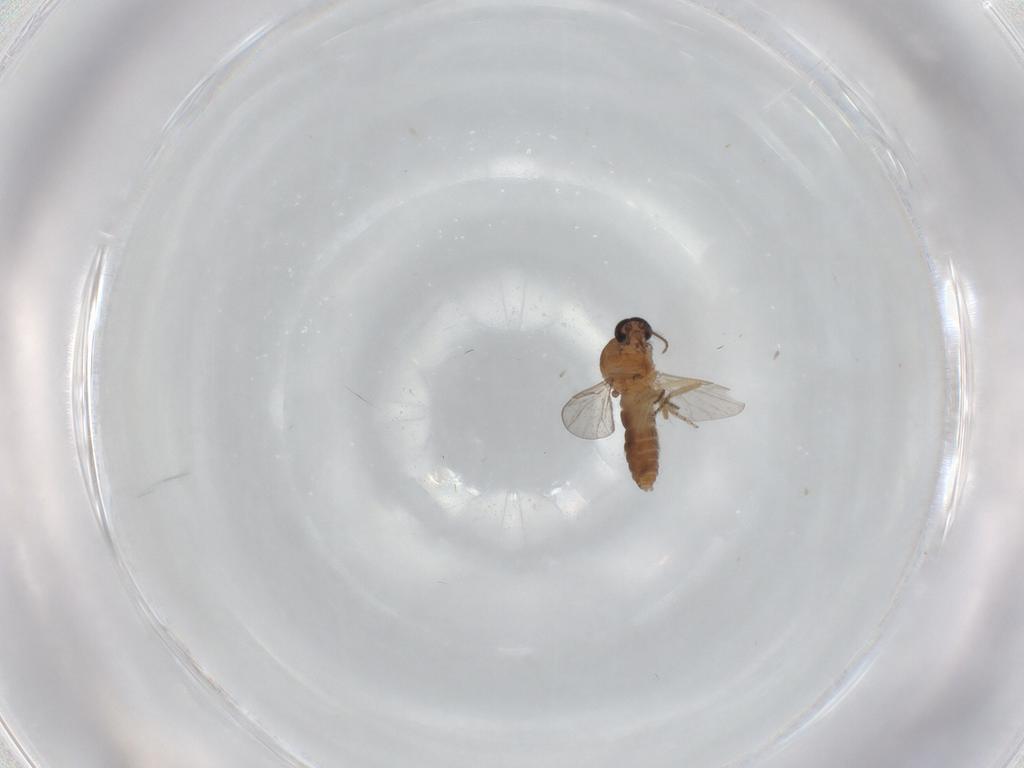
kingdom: Animalia
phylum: Arthropoda
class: Insecta
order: Diptera
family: Ceratopogonidae
